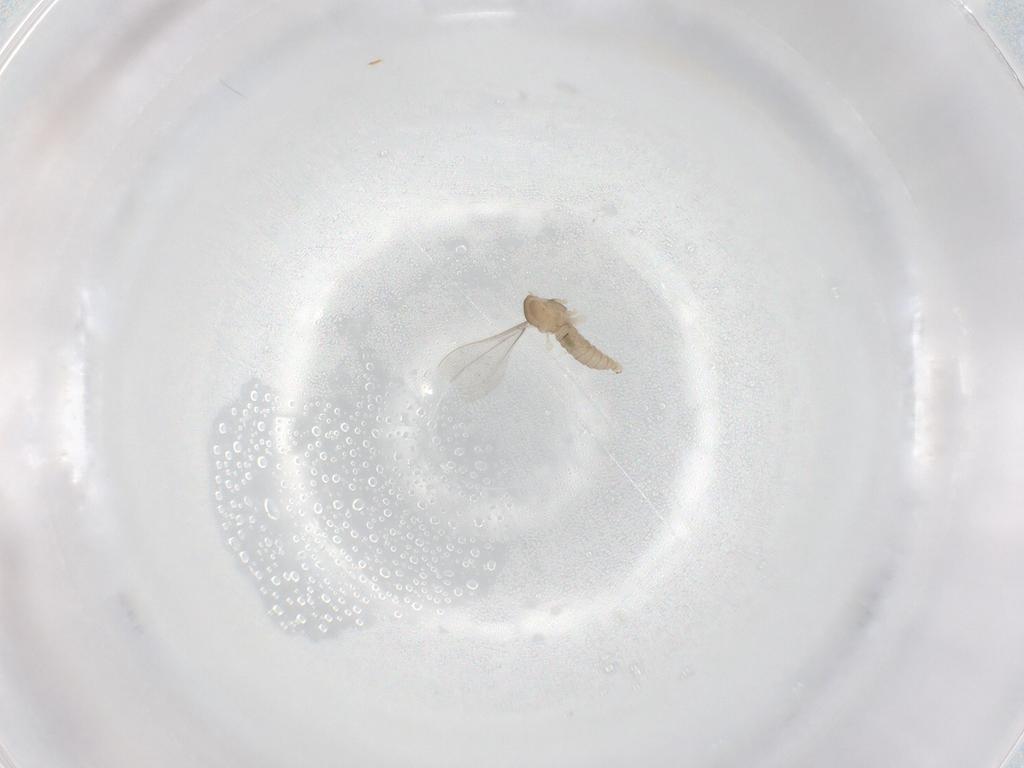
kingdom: Animalia
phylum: Arthropoda
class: Insecta
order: Diptera
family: Cecidomyiidae
